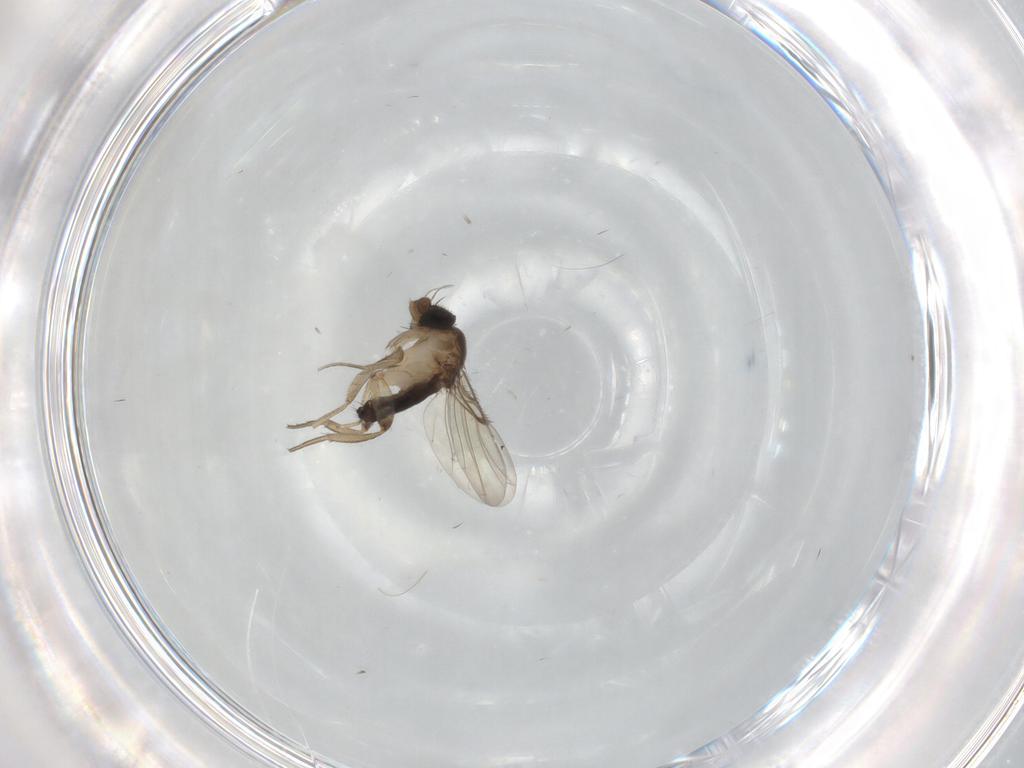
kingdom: Animalia
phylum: Arthropoda
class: Insecta
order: Diptera
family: Phoridae
